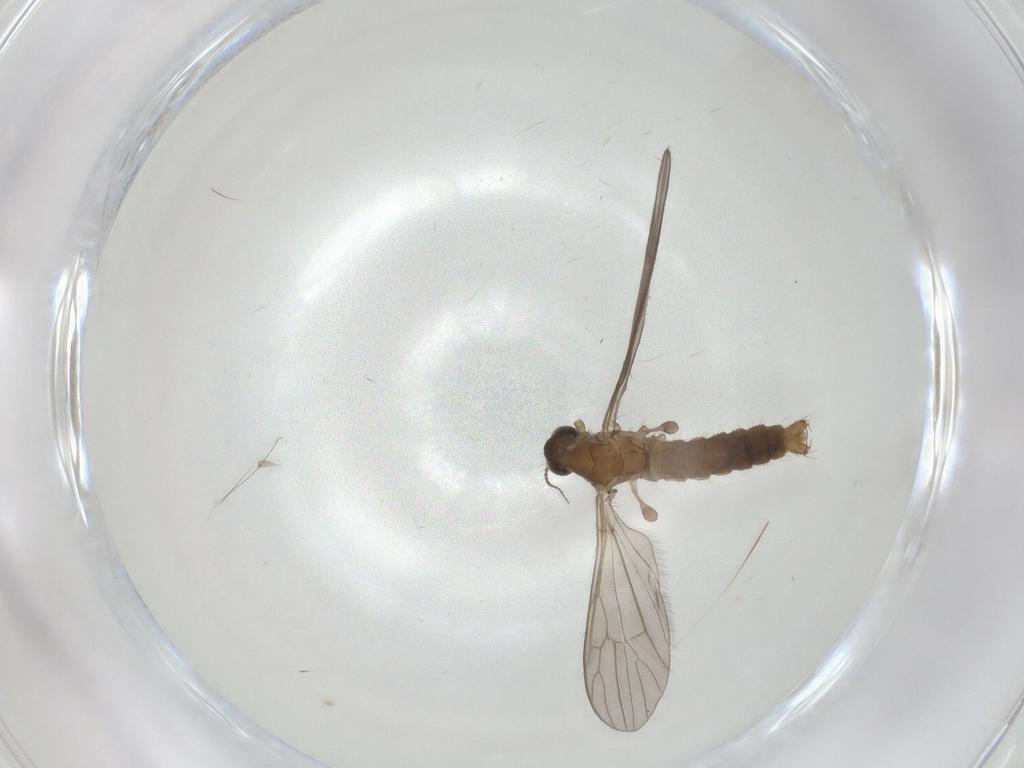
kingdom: Animalia
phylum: Arthropoda
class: Insecta
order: Diptera
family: Limoniidae
